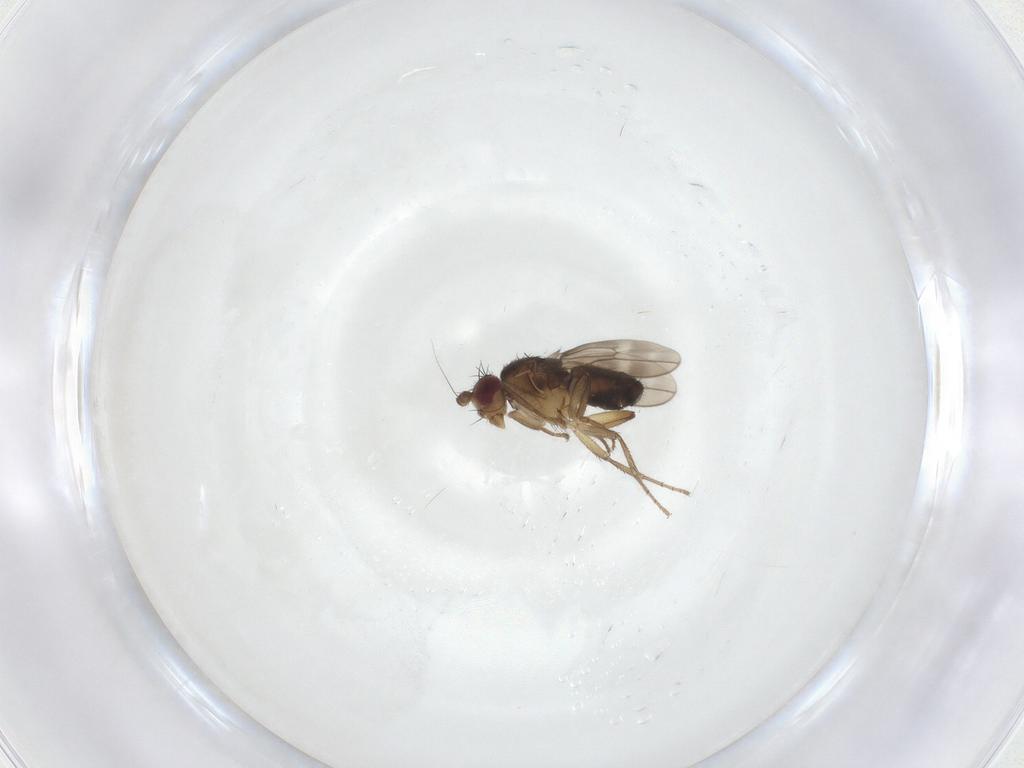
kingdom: Animalia
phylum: Arthropoda
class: Insecta
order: Diptera
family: Sphaeroceridae
